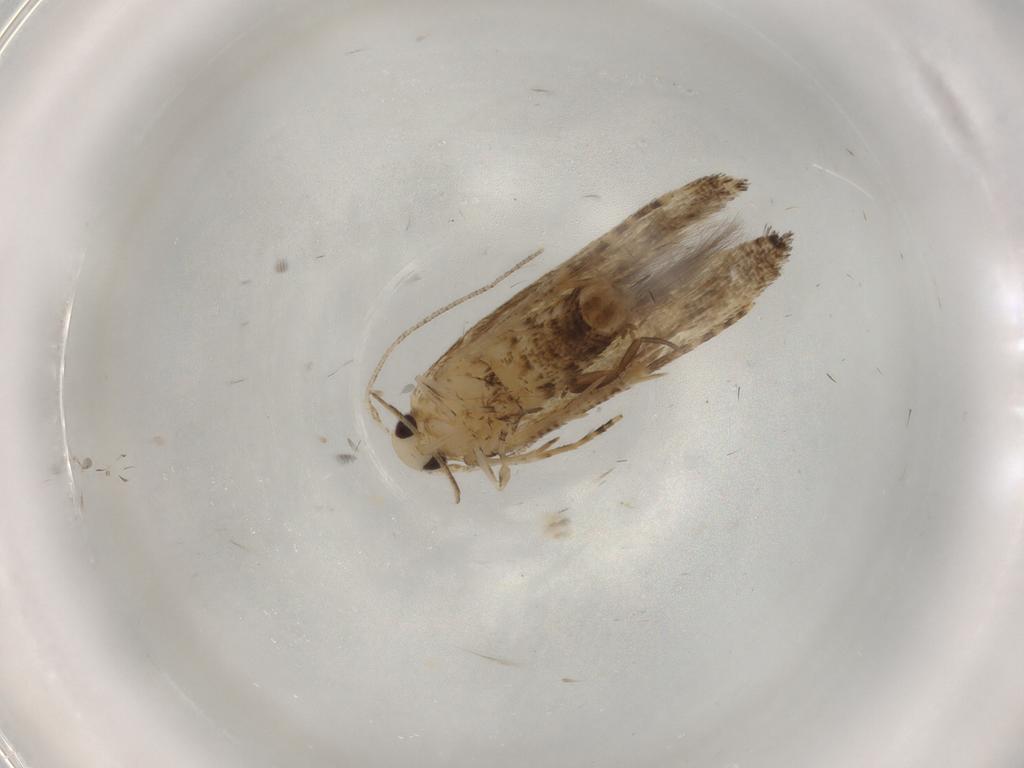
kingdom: Animalia
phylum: Arthropoda
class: Insecta
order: Lepidoptera
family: Cosmopterigidae
